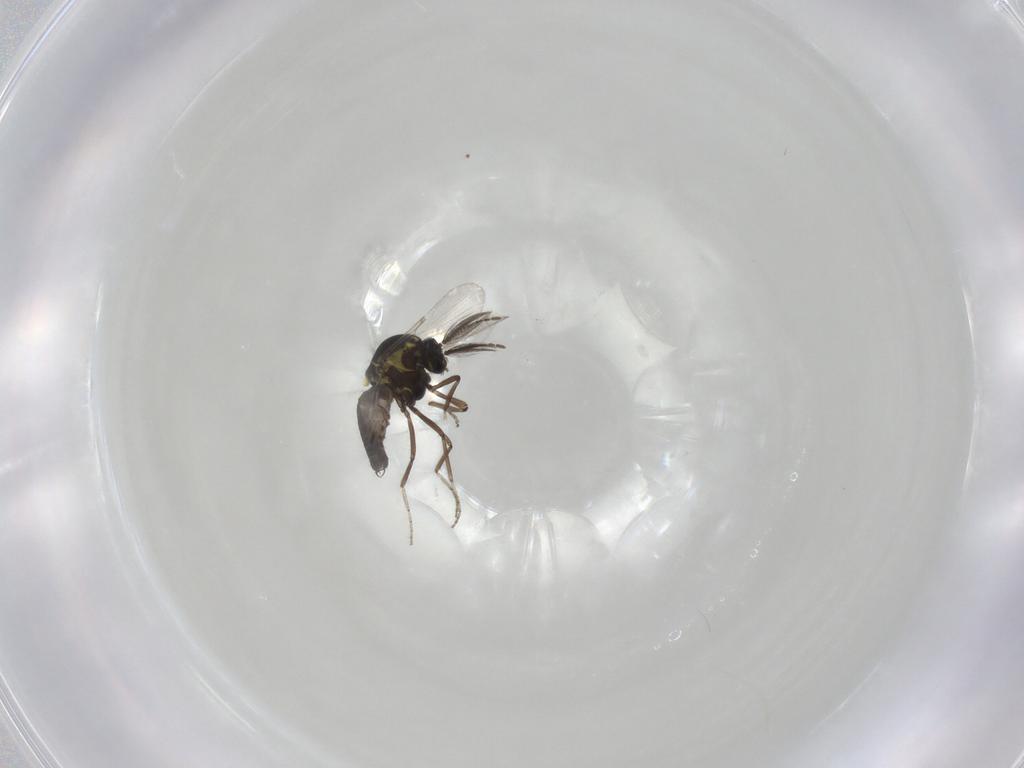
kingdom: Animalia
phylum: Arthropoda
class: Insecta
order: Diptera
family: Ceratopogonidae
